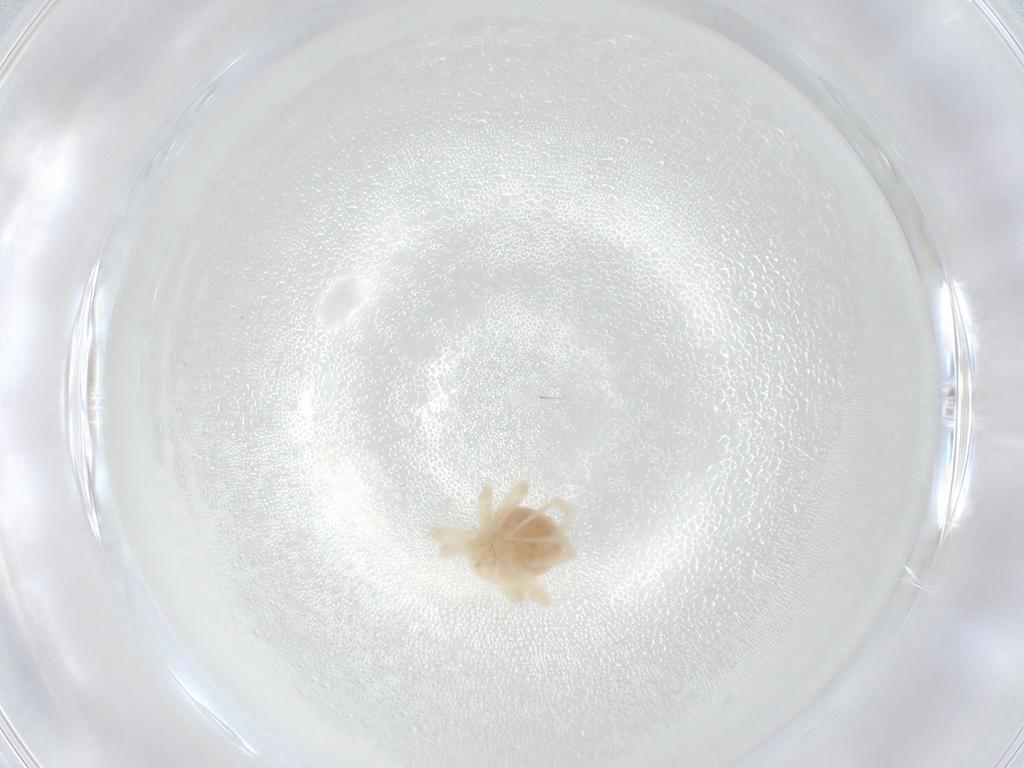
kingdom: Animalia
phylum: Arthropoda
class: Arachnida
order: Trombidiformes
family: Anystidae
